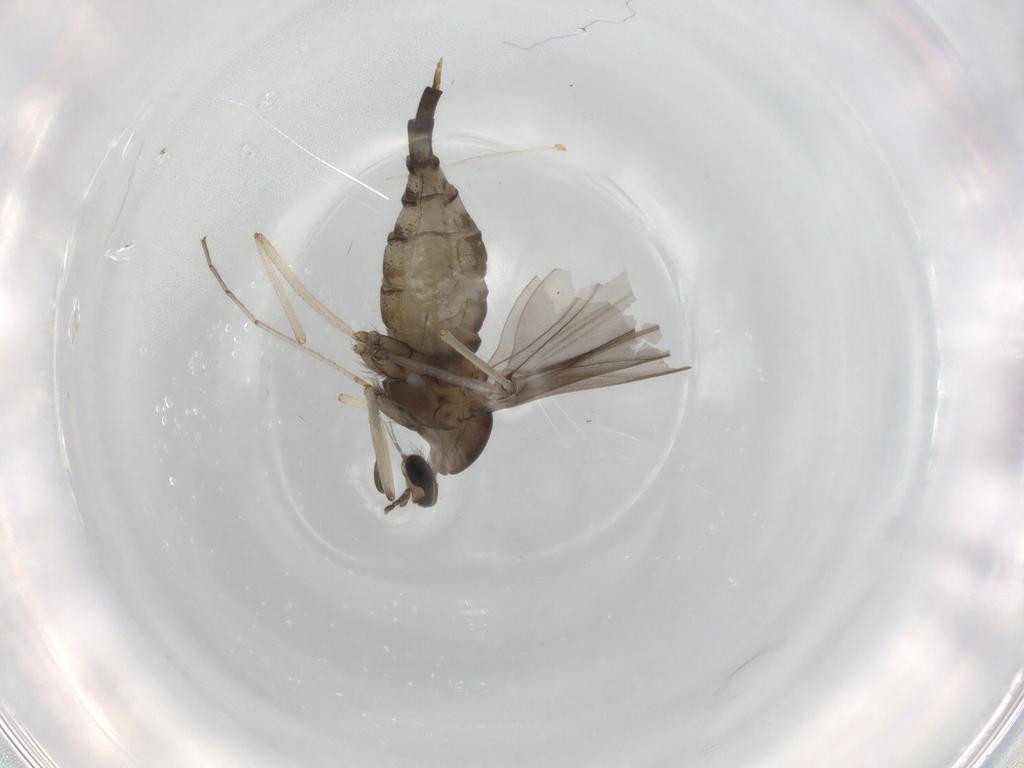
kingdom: Animalia
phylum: Arthropoda
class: Insecta
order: Diptera
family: Cecidomyiidae
